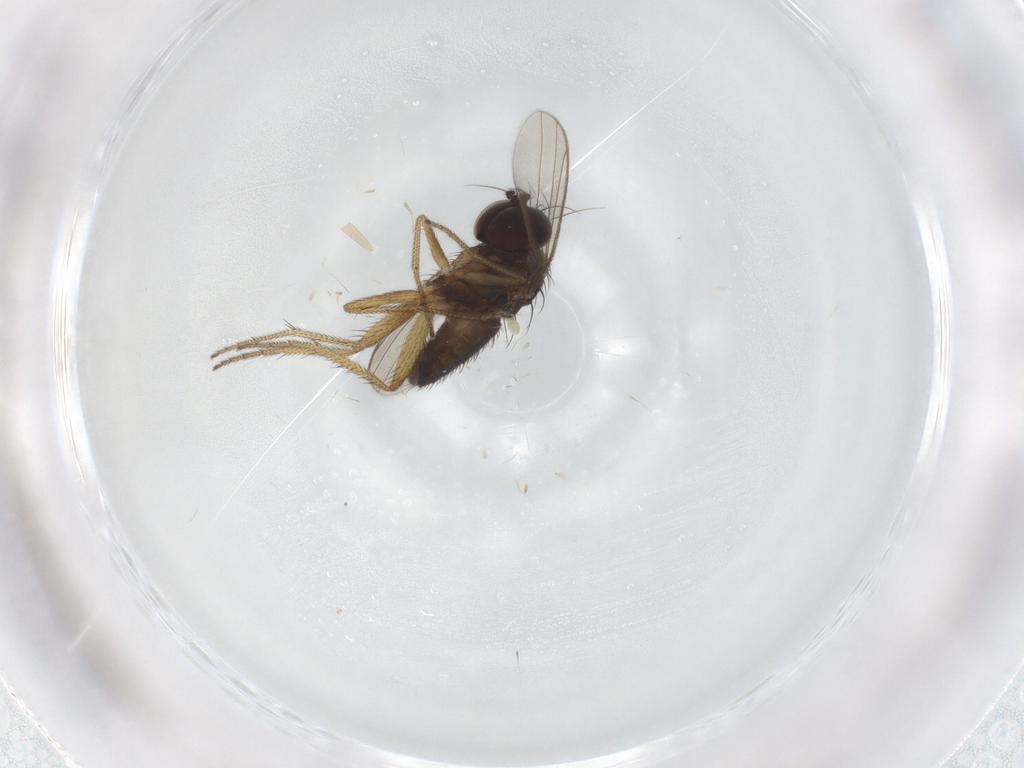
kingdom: Animalia
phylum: Arthropoda
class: Insecta
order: Diptera
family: Dolichopodidae
